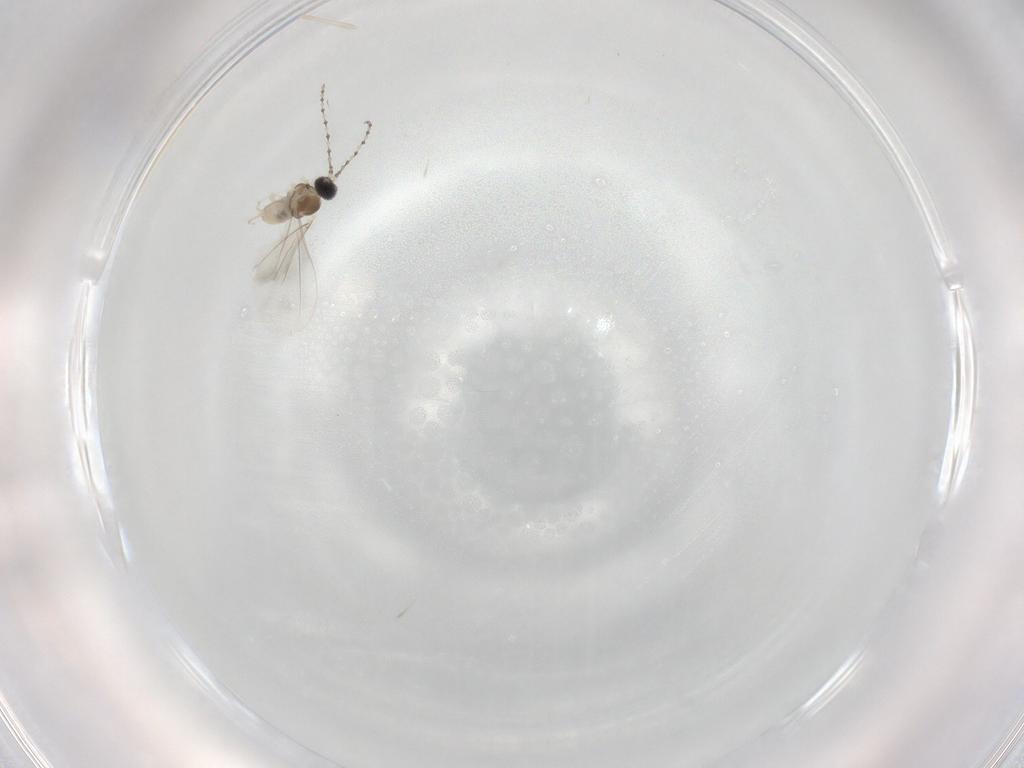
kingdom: Animalia
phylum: Arthropoda
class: Insecta
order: Diptera
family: Cecidomyiidae
